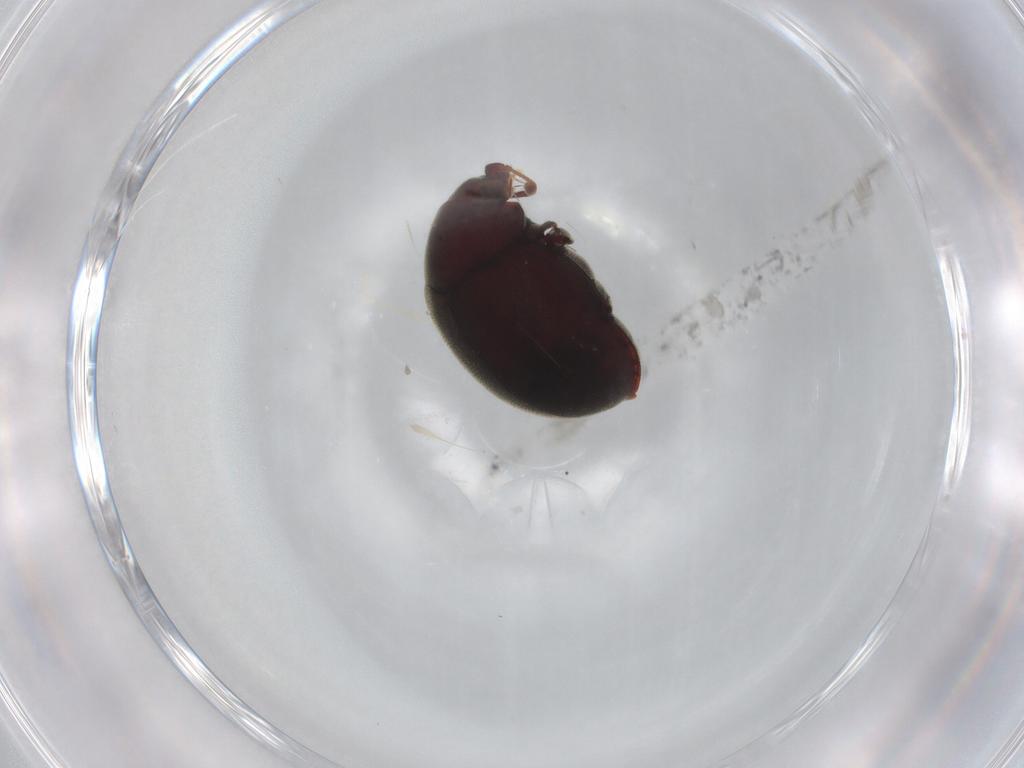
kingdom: Animalia
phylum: Arthropoda
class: Insecta
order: Coleoptera
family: Ptinidae
